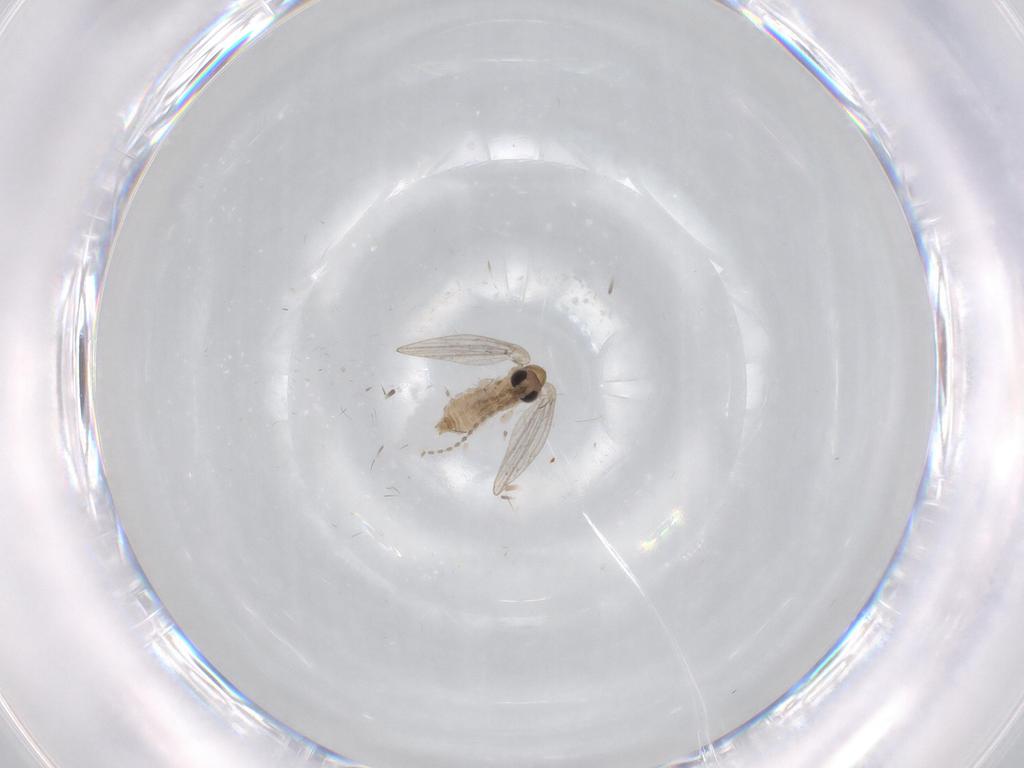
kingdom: Animalia
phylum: Arthropoda
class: Insecta
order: Diptera
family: Psychodidae
